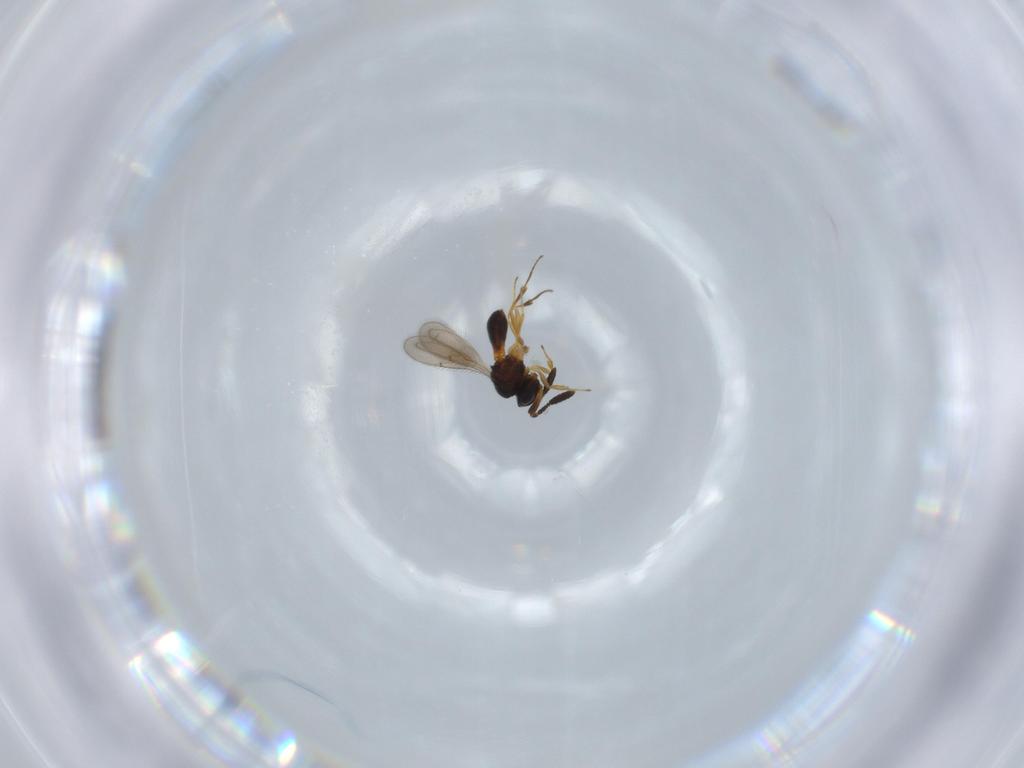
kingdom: Animalia
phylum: Arthropoda
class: Insecta
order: Hymenoptera
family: Scelionidae
